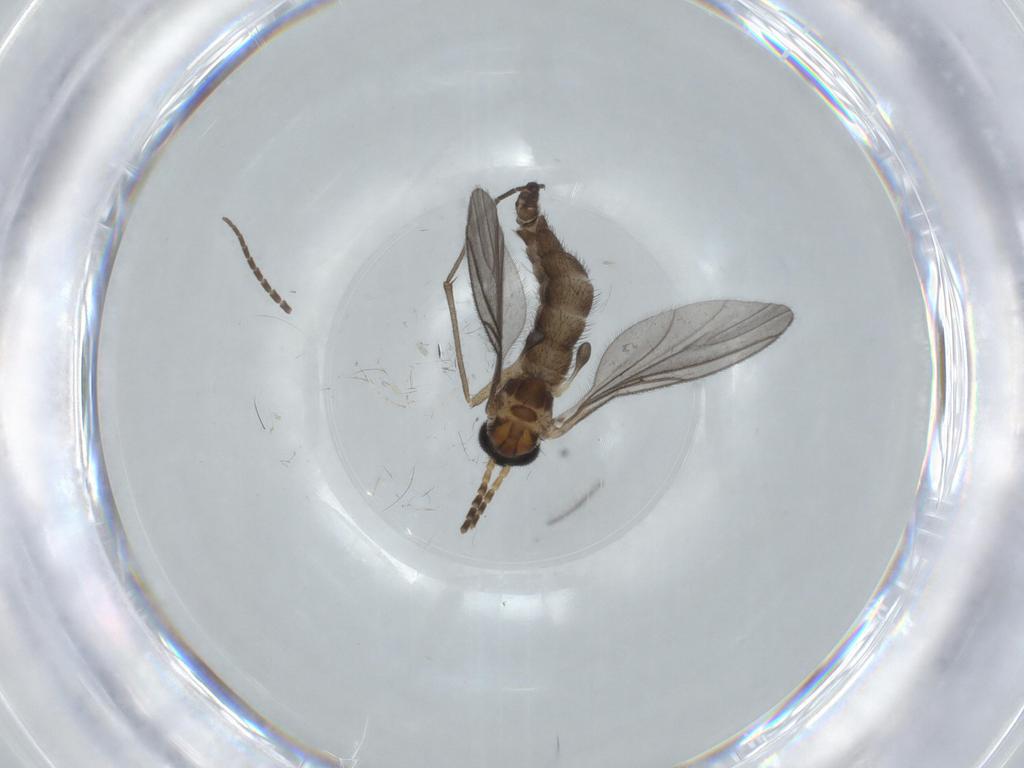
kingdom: Animalia
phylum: Arthropoda
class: Insecta
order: Diptera
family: Sciaridae
